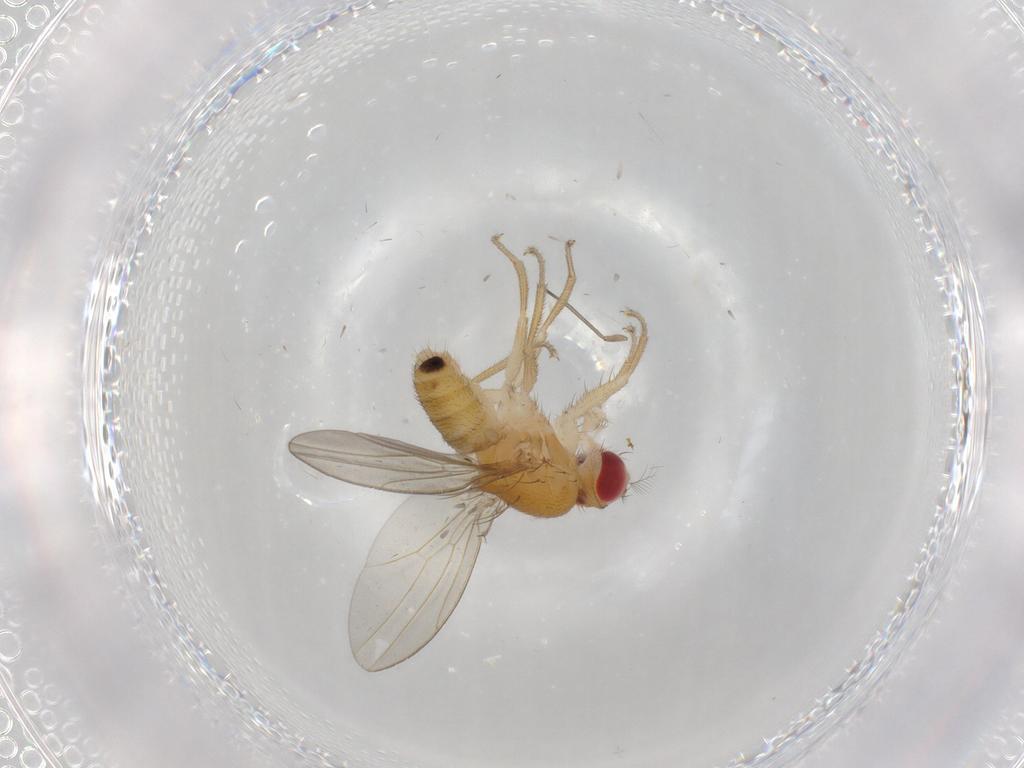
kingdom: Animalia
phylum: Arthropoda
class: Insecta
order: Diptera
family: Drosophilidae
